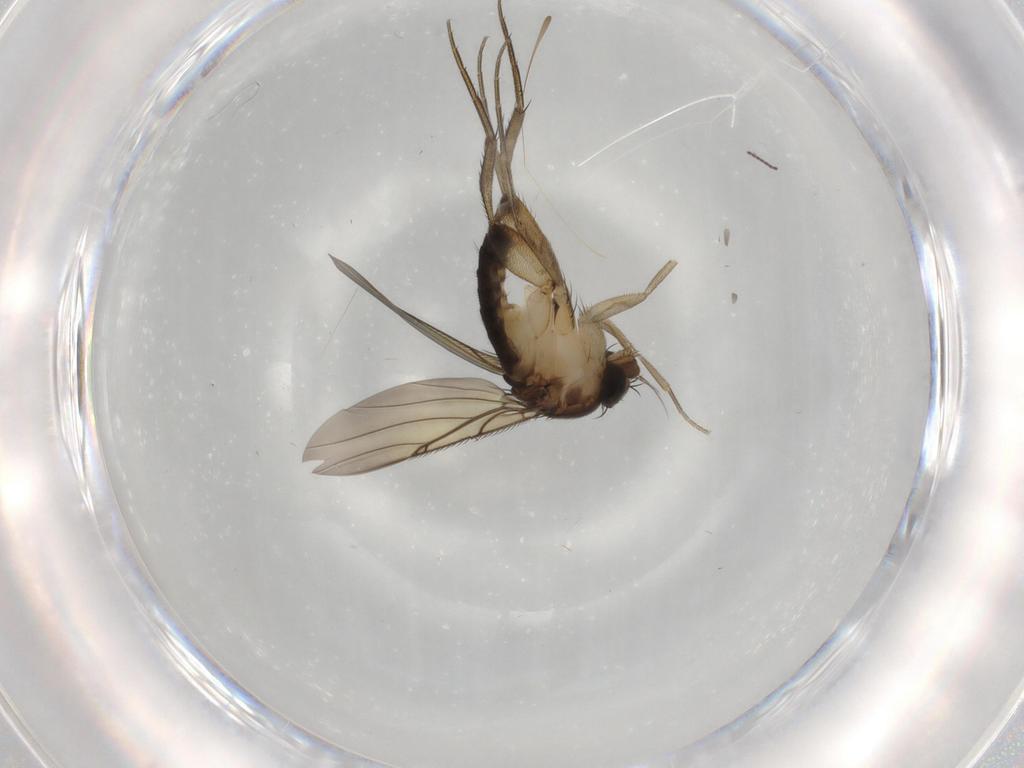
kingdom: Animalia
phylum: Arthropoda
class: Insecta
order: Diptera
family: Sciaridae
